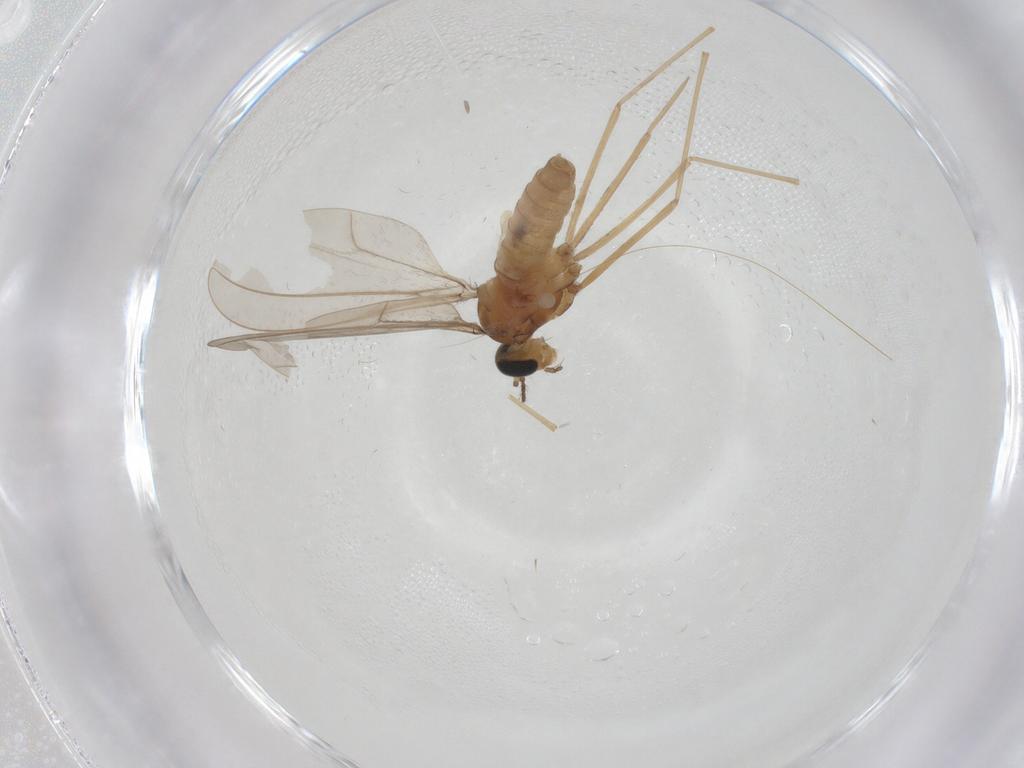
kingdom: Animalia
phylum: Arthropoda
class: Insecta
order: Diptera
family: Cecidomyiidae
